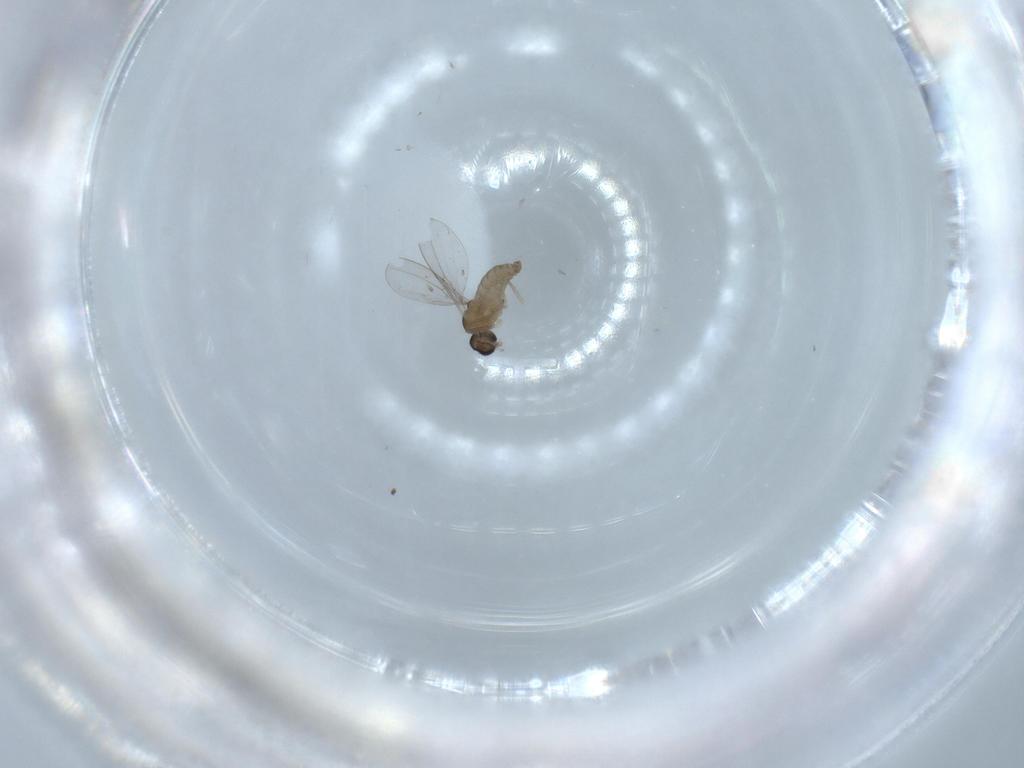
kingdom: Animalia
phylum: Arthropoda
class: Insecta
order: Diptera
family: Cecidomyiidae
